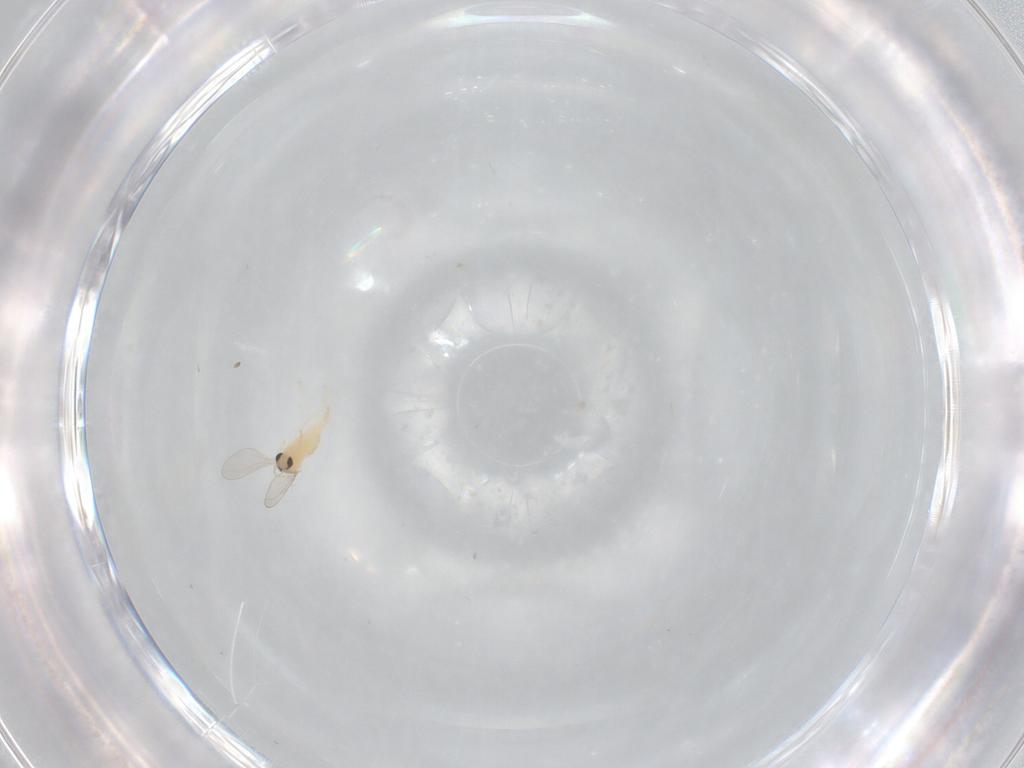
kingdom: Animalia
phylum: Arthropoda
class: Insecta
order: Diptera
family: Cecidomyiidae
